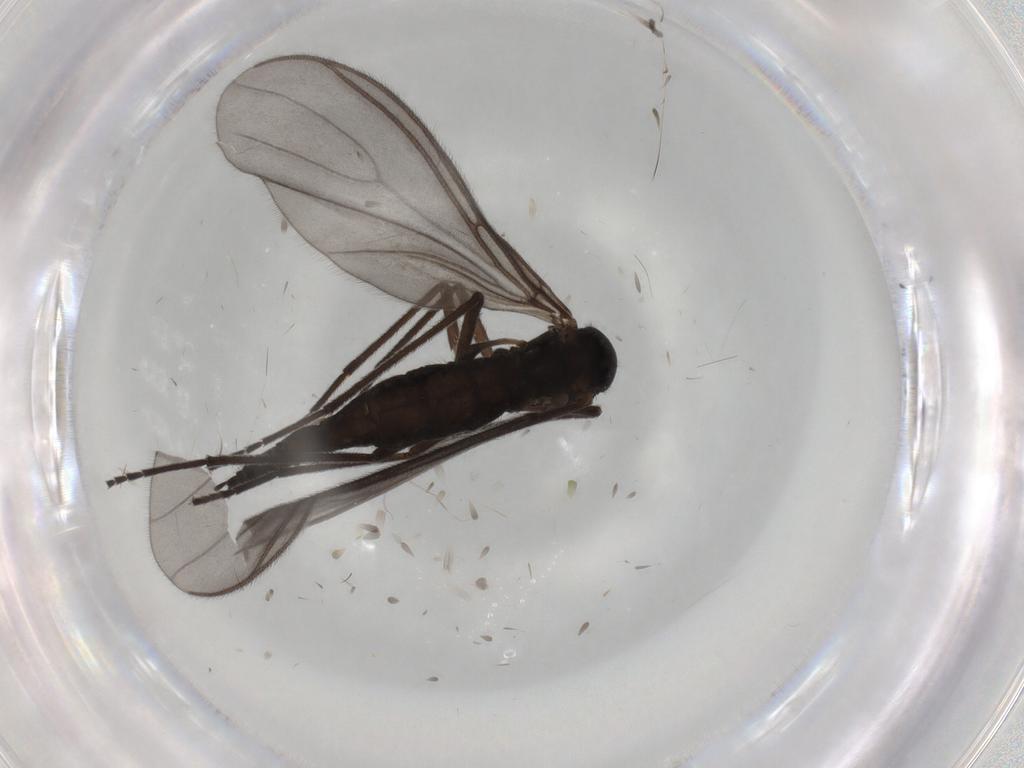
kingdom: Animalia
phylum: Arthropoda
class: Insecta
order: Diptera
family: Sciaridae
